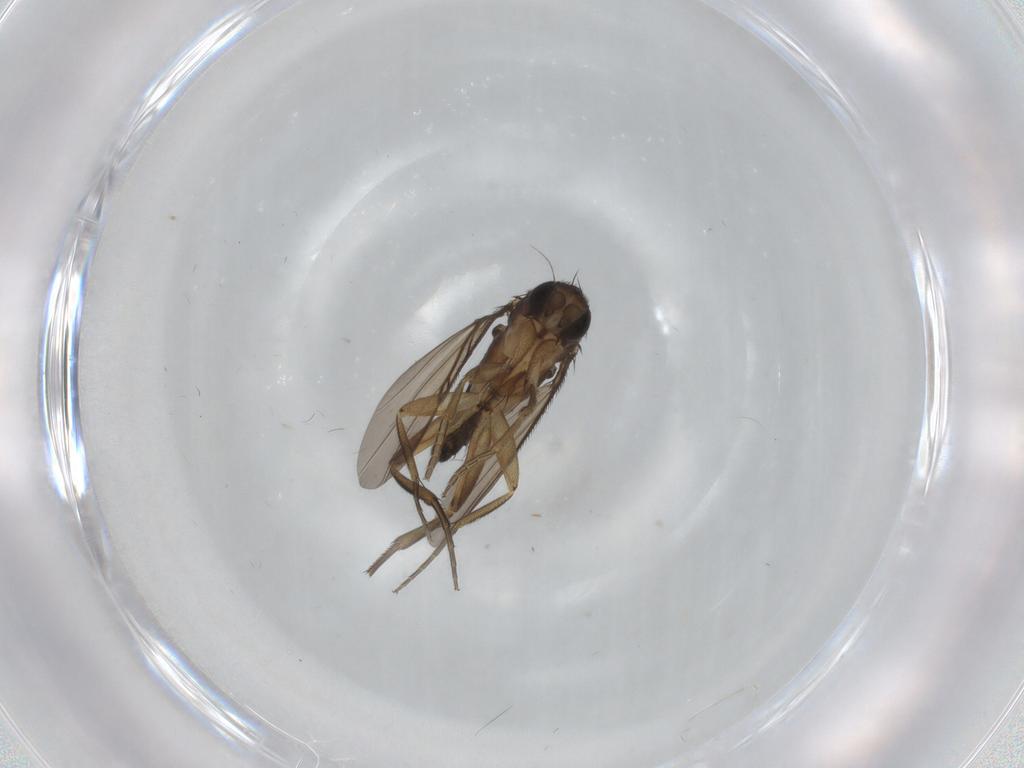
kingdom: Animalia
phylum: Arthropoda
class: Insecta
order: Diptera
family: Phoridae
